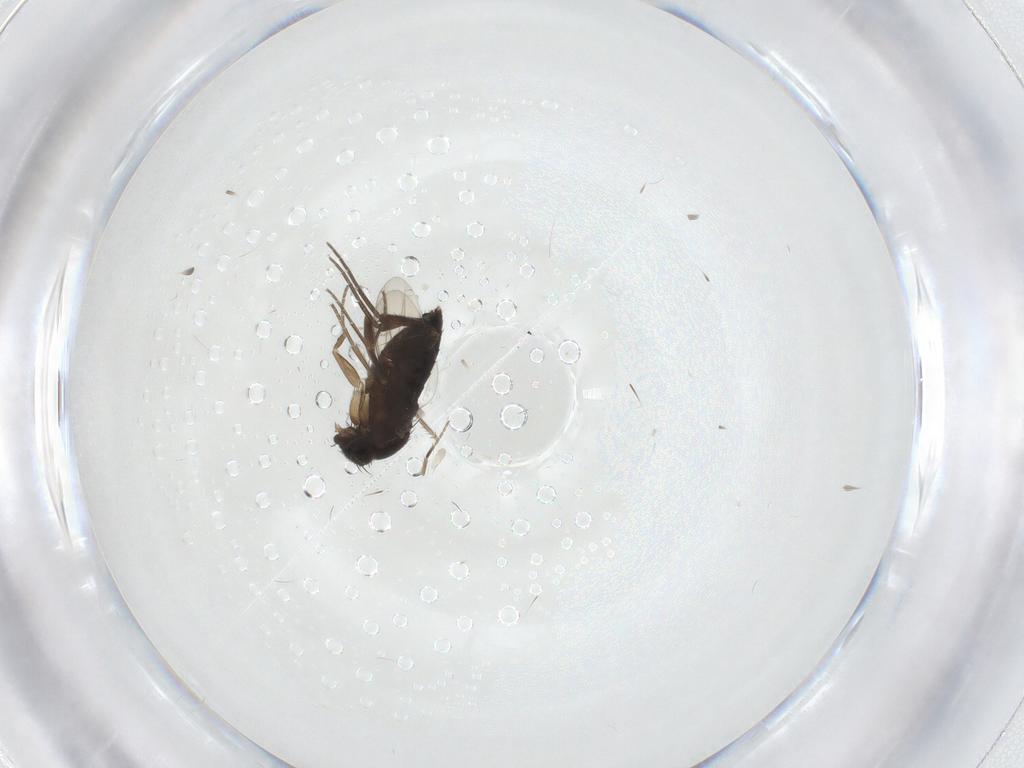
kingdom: Animalia
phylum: Arthropoda
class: Insecta
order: Diptera
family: Mycetophilidae
